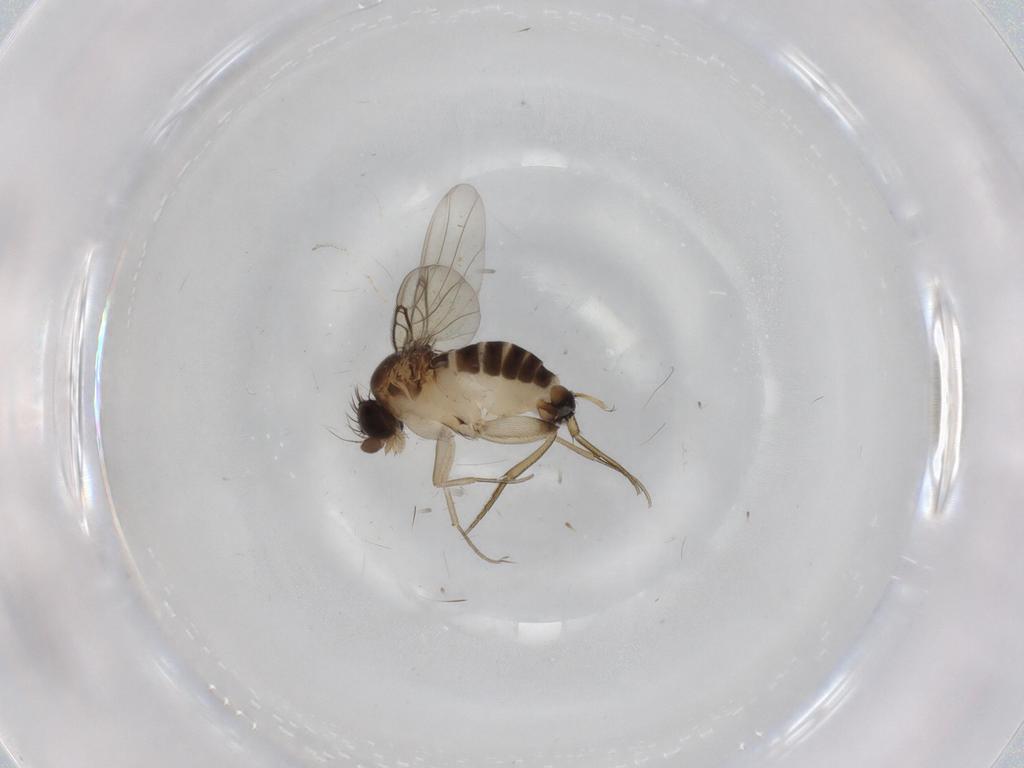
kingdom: Animalia
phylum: Arthropoda
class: Insecta
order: Diptera
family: Phoridae
